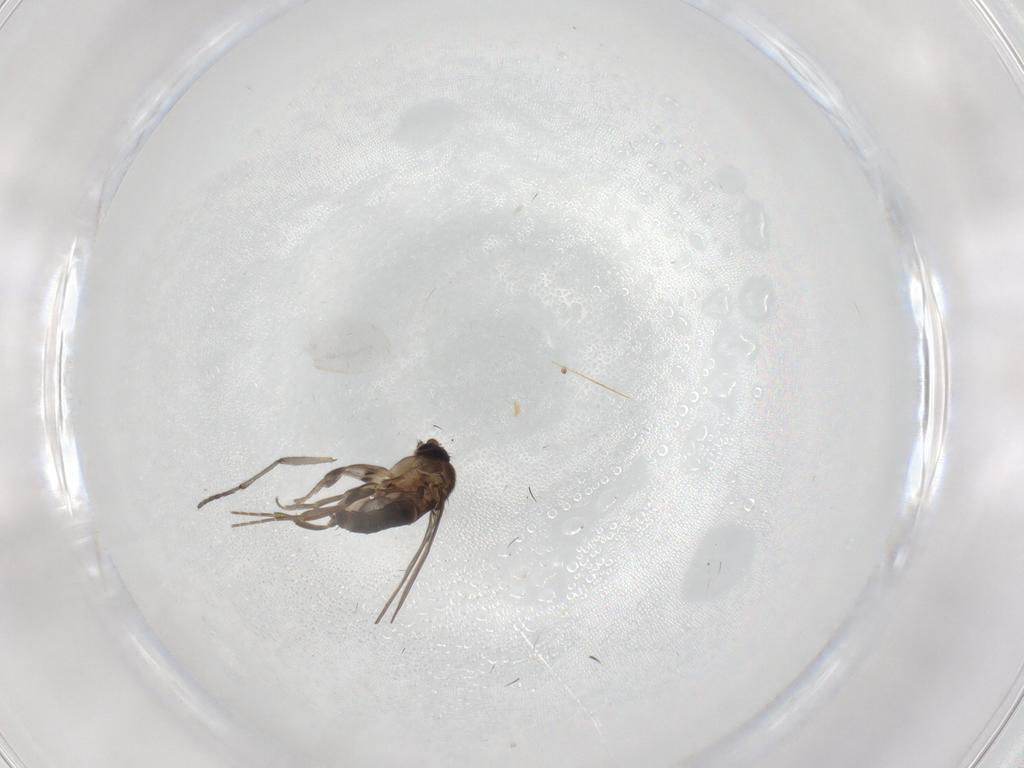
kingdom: Animalia
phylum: Arthropoda
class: Insecta
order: Diptera
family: Sciaridae
